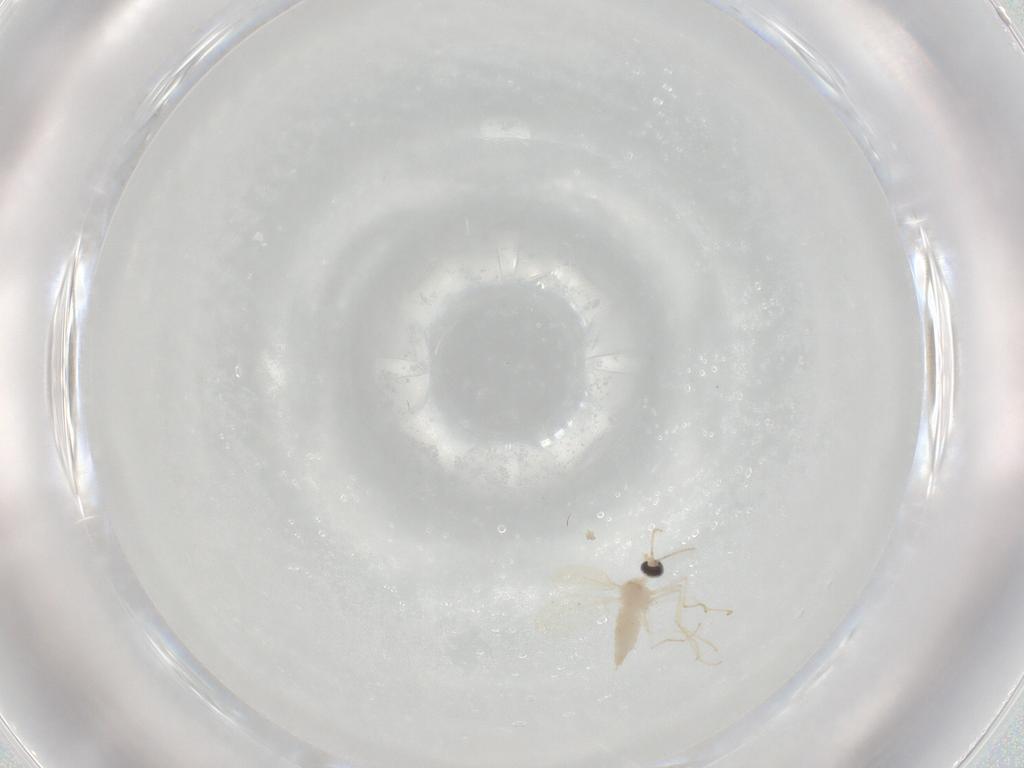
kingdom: Animalia
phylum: Arthropoda
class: Insecta
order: Diptera
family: Cecidomyiidae
